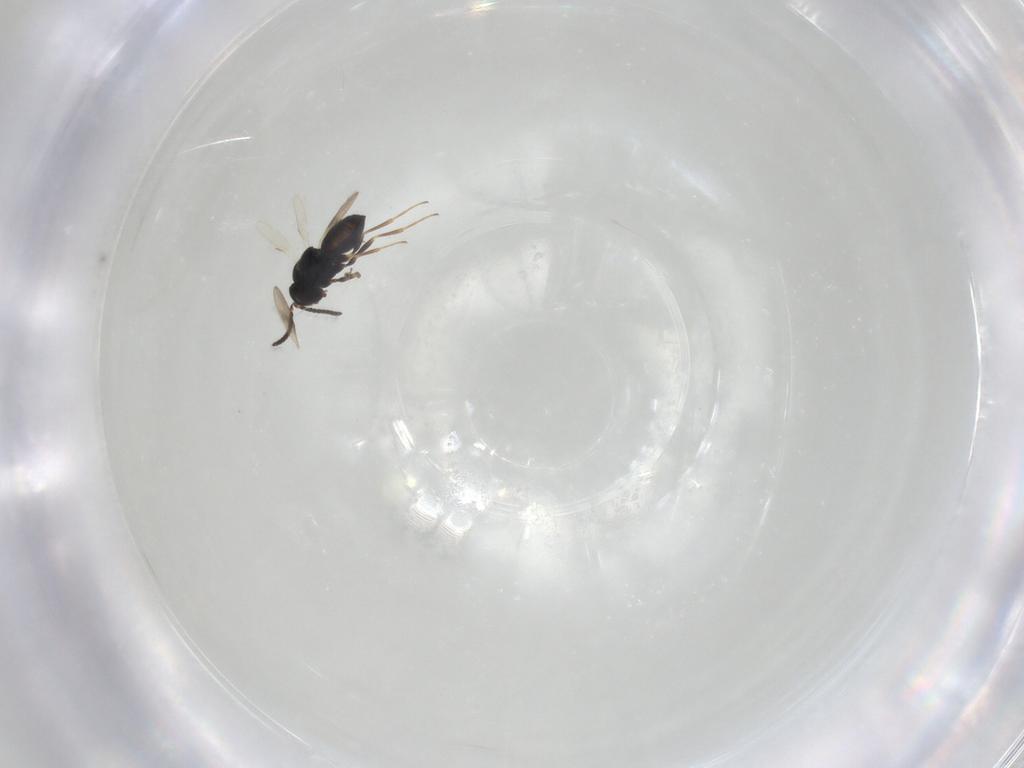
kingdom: Animalia
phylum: Arthropoda
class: Insecta
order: Hymenoptera
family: Scelionidae
